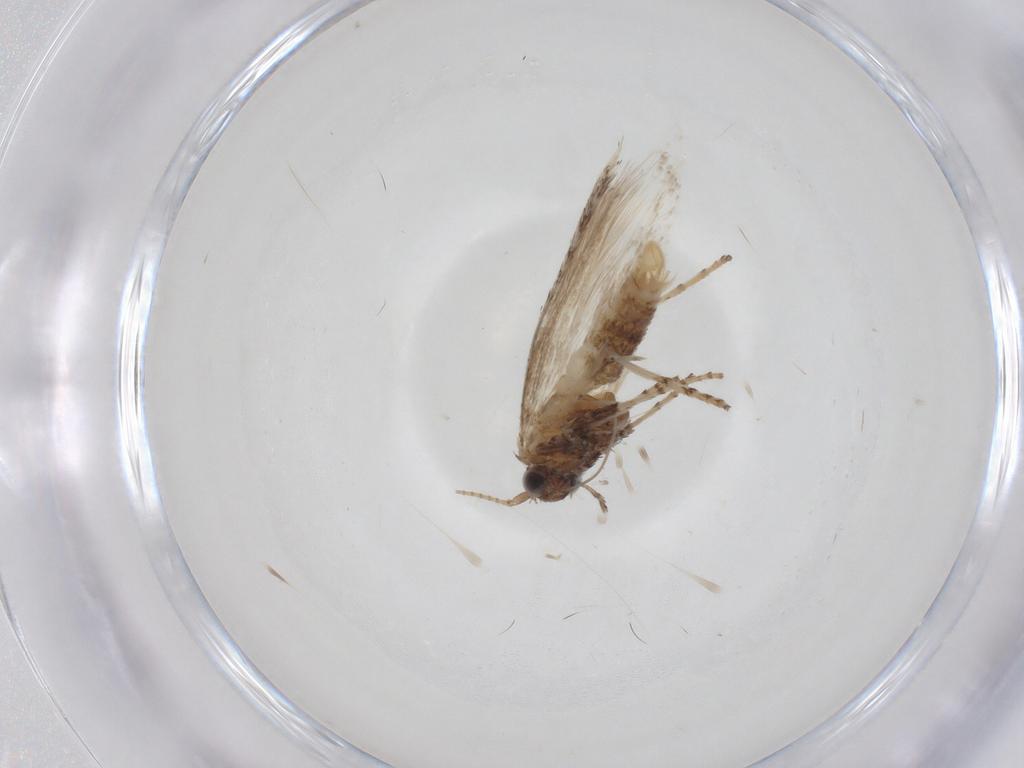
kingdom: Animalia
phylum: Arthropoda
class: Insecta
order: Lepidoptera
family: Gracillariidae
